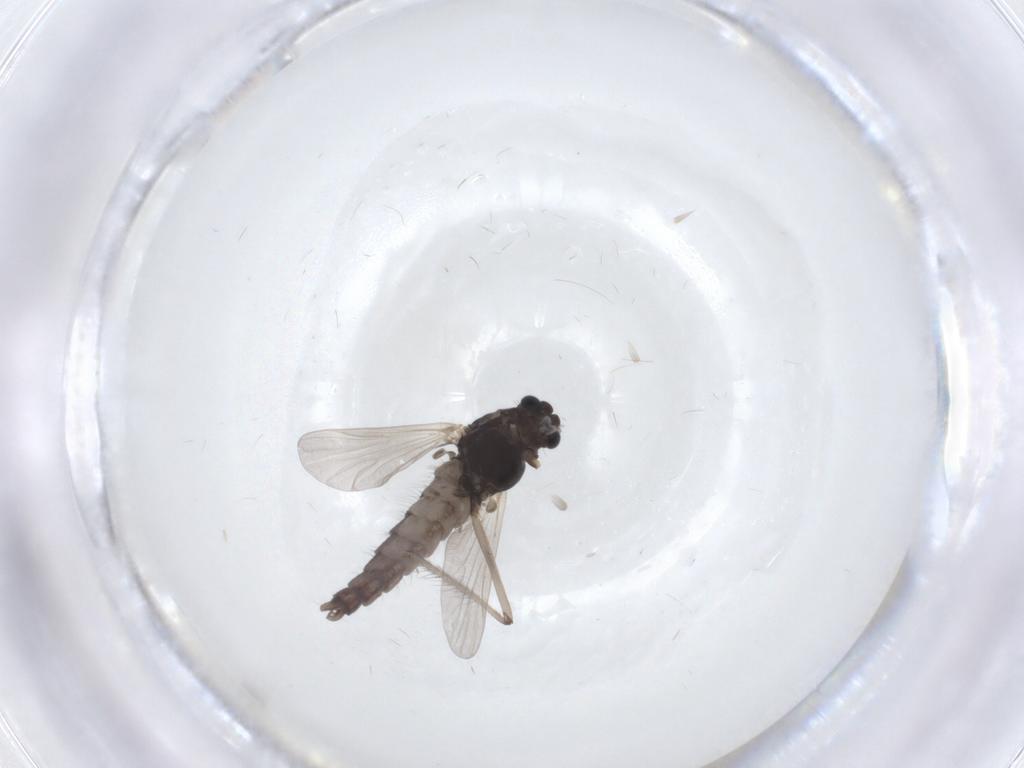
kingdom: Animalia
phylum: Arthropoda
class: Insecta
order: Diptera
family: Chironomidae
